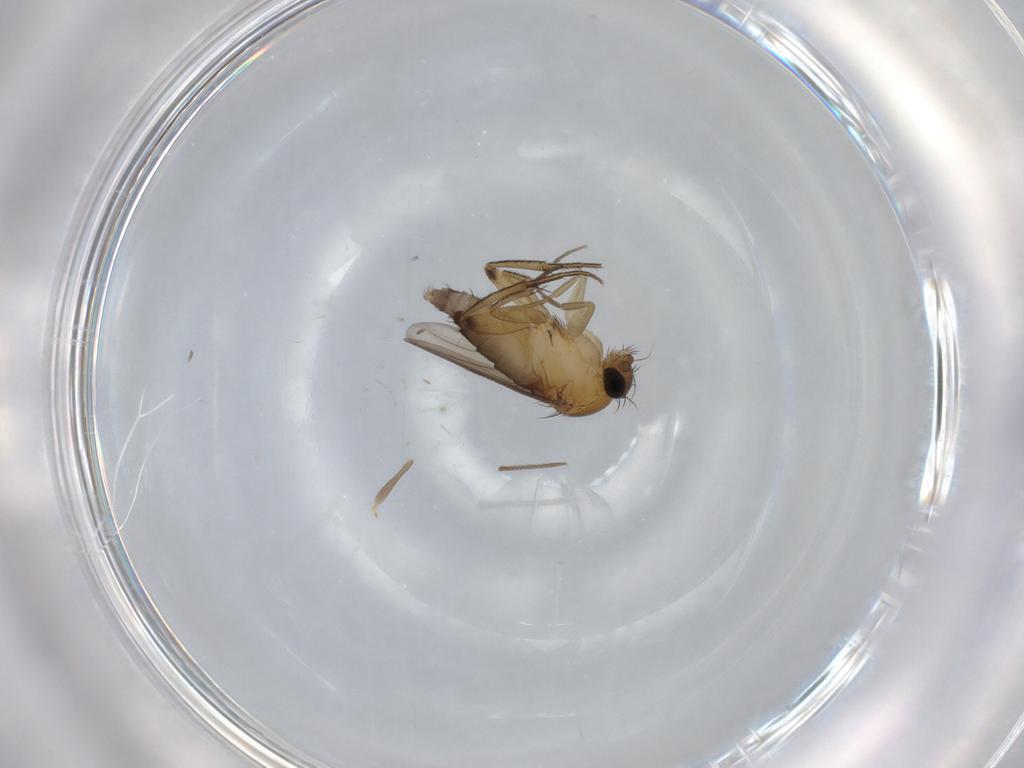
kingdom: Animalia
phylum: Arthropoda
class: Insecta
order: Diptera
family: Phoridae
